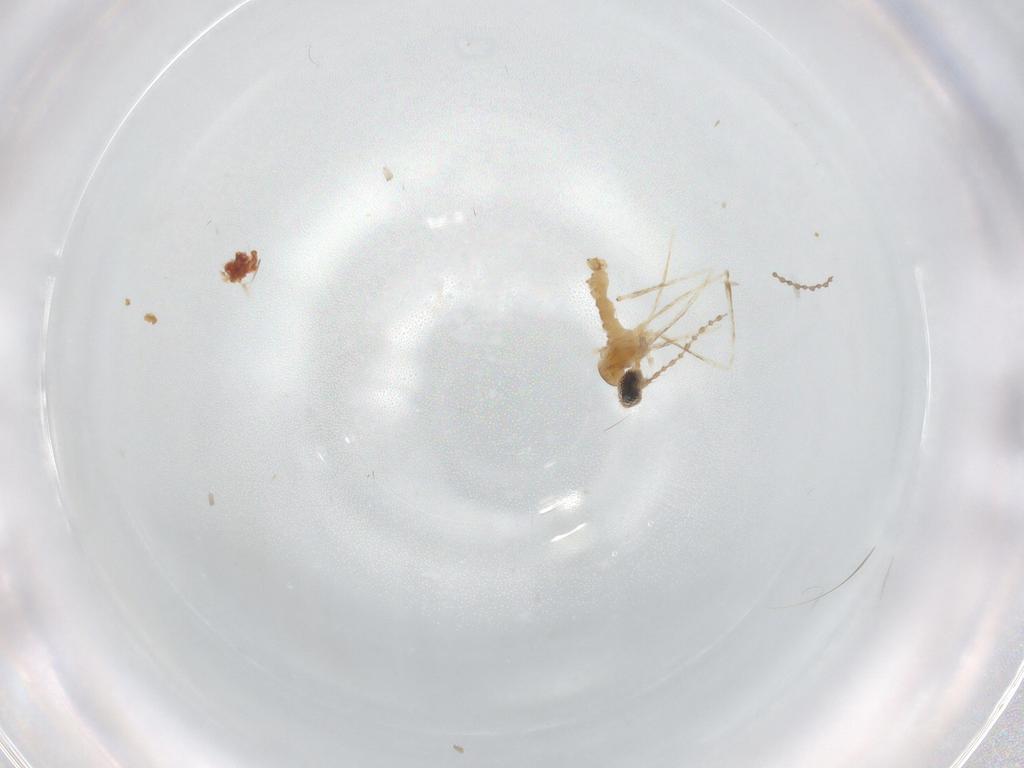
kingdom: Animalia
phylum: Arthropoda
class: Insecta
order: Diptera
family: Cecidomyiidae
